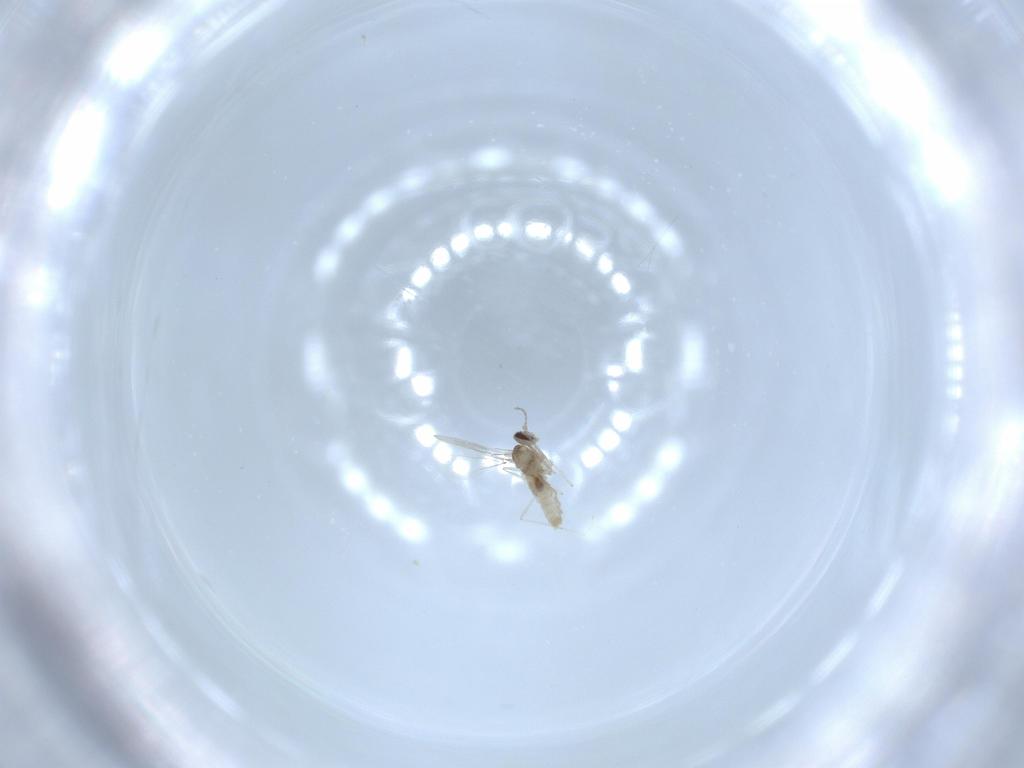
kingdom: Animalia
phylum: Arthropoda
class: Insecta
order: Diptera
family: Cecidomyiidae
